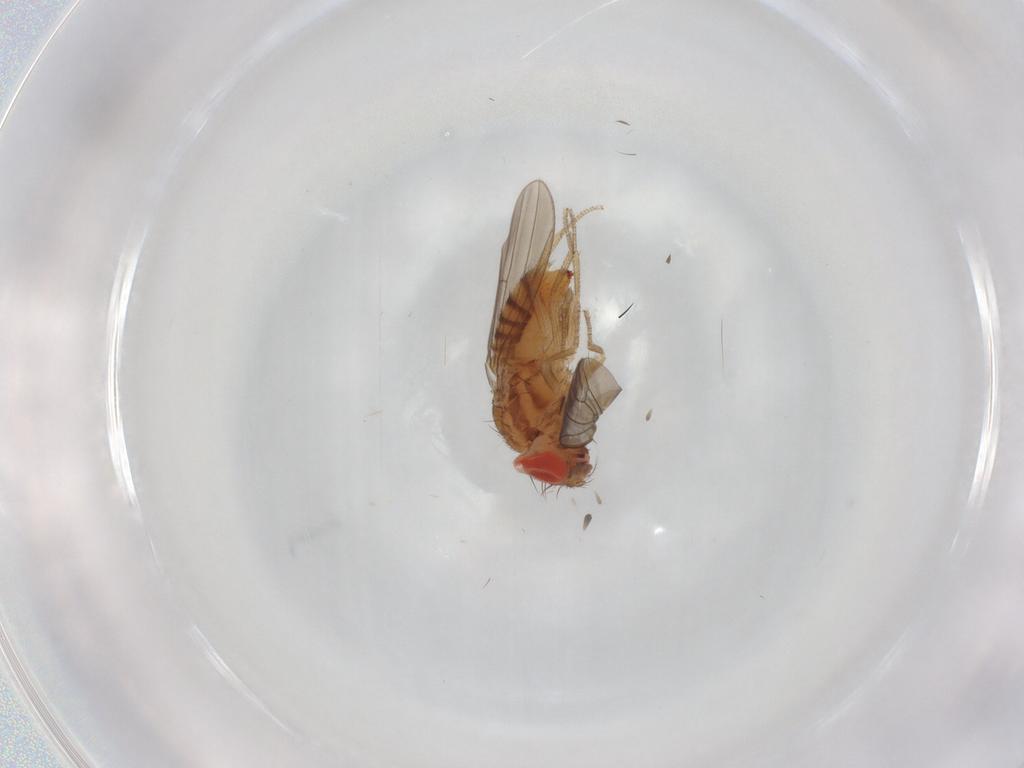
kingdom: Animalia
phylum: Arthropoda
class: Insecta
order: Diptera
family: Drosophilidae
